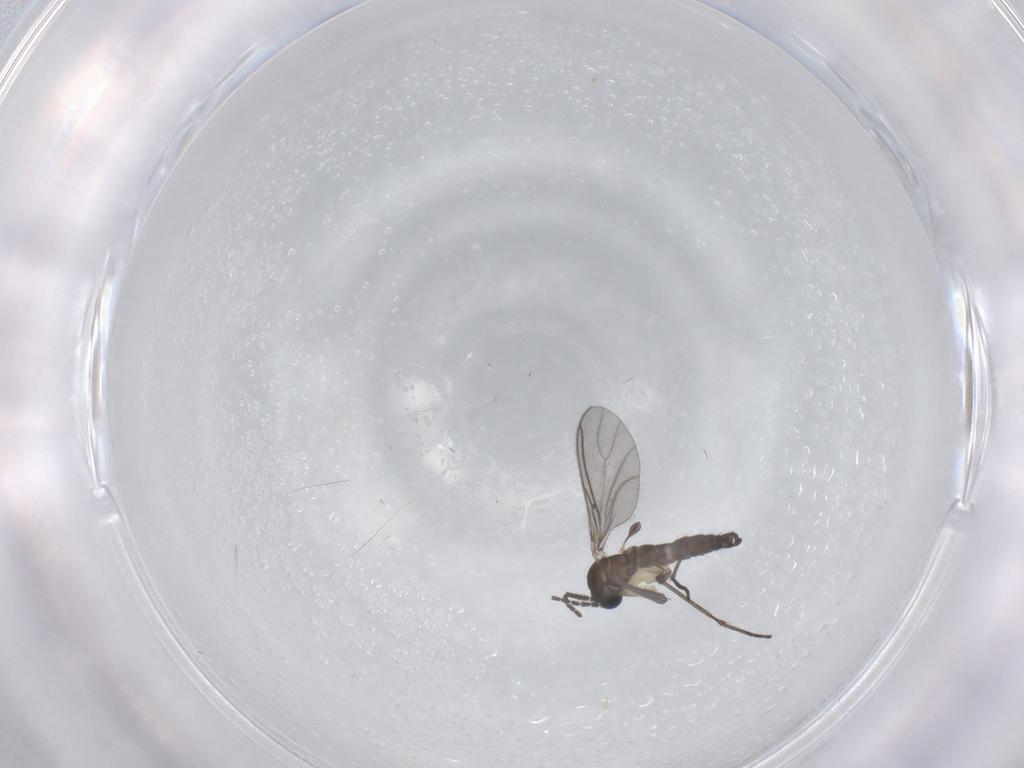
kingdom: Animalia
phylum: Arthropoda
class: Insecta
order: Diptera
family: Sciaridae
